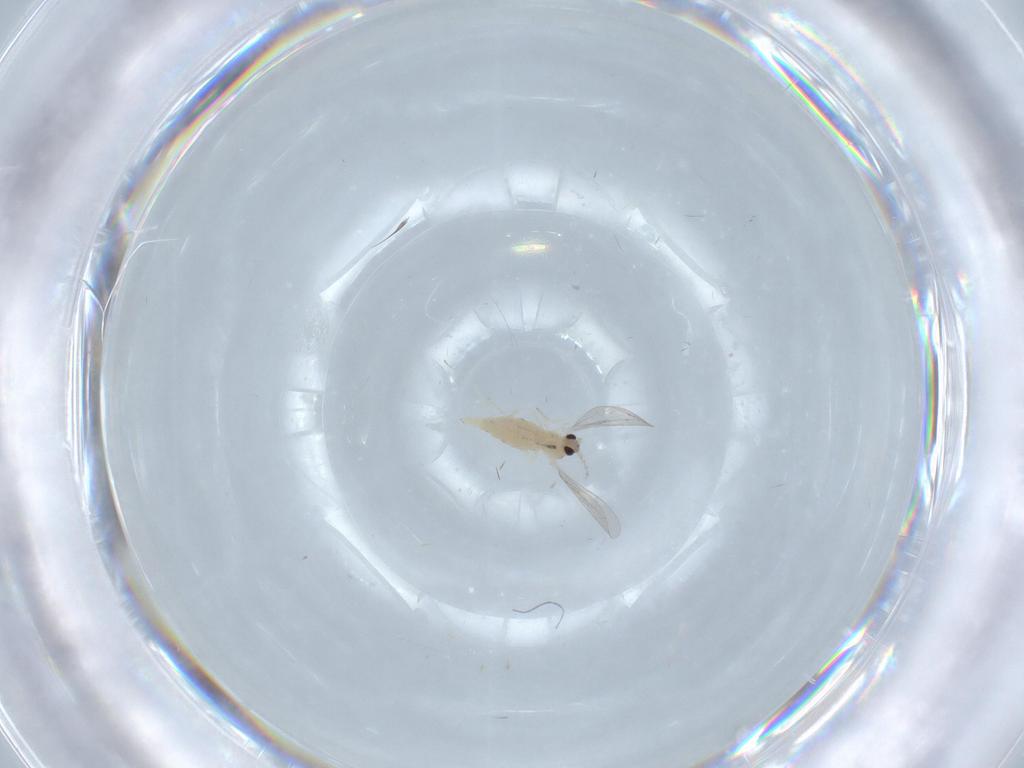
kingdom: Animalia
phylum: Arthropoda
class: Insecta
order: Diptera
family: Cecidomyiidae
